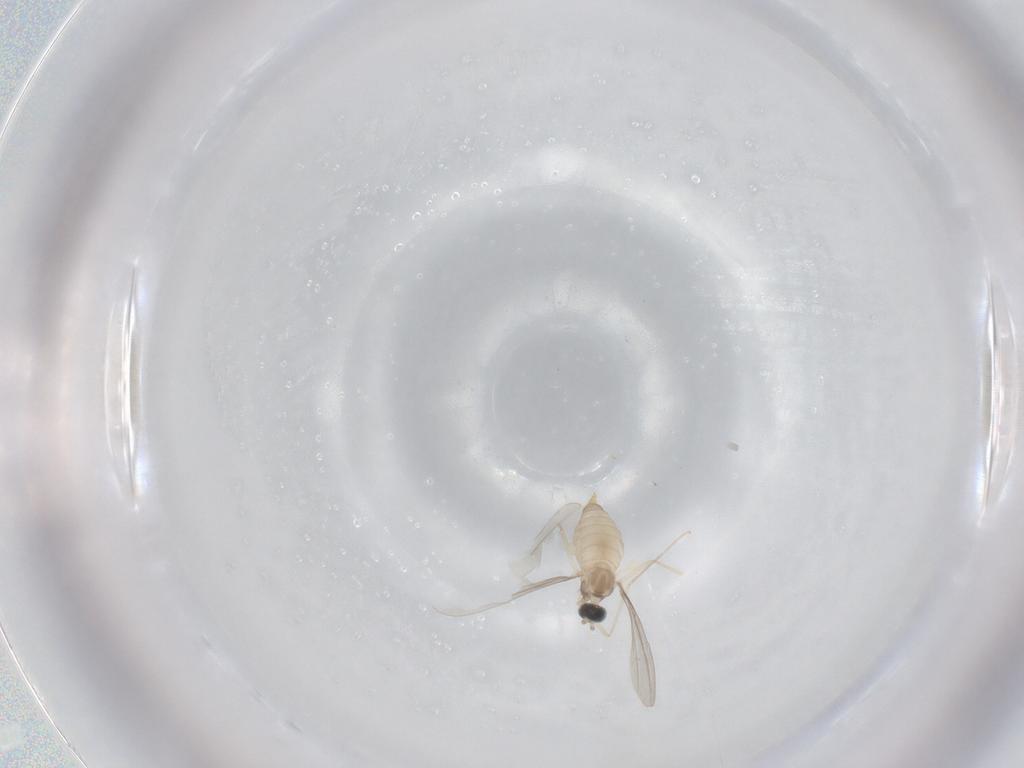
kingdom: Animalia
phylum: Arthropoda
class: Insecta
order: Diptera
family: Cecidomyiidae
